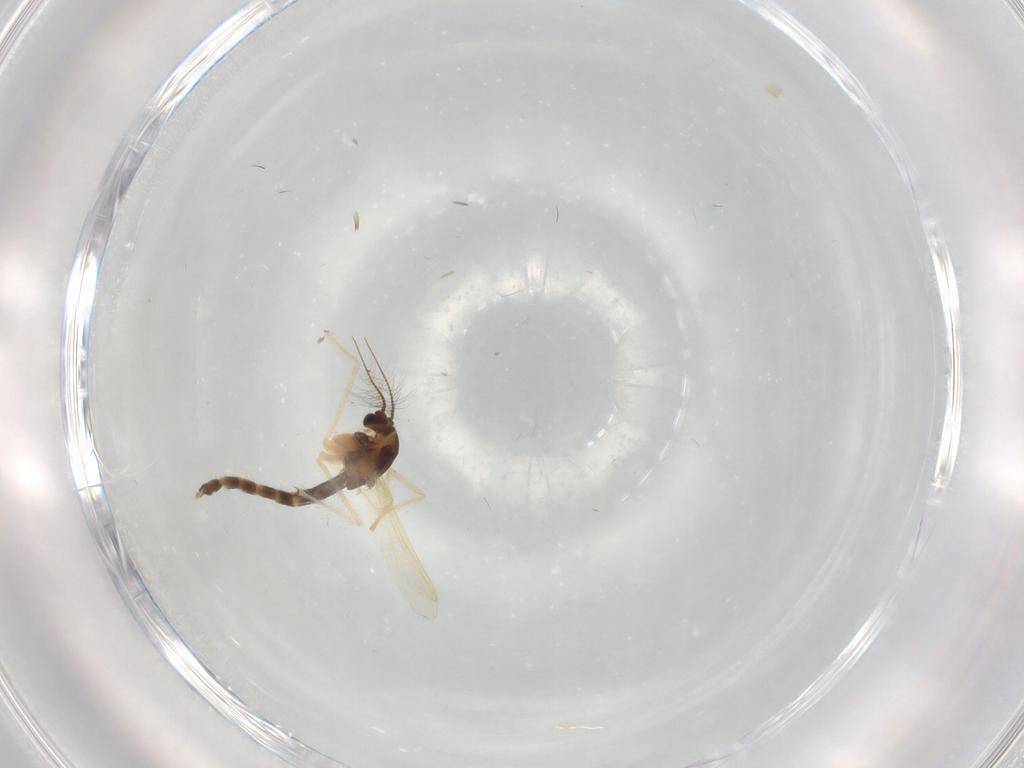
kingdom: Animalia
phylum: Arthropoda
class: Insecta
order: Diptera
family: Chironomidae
